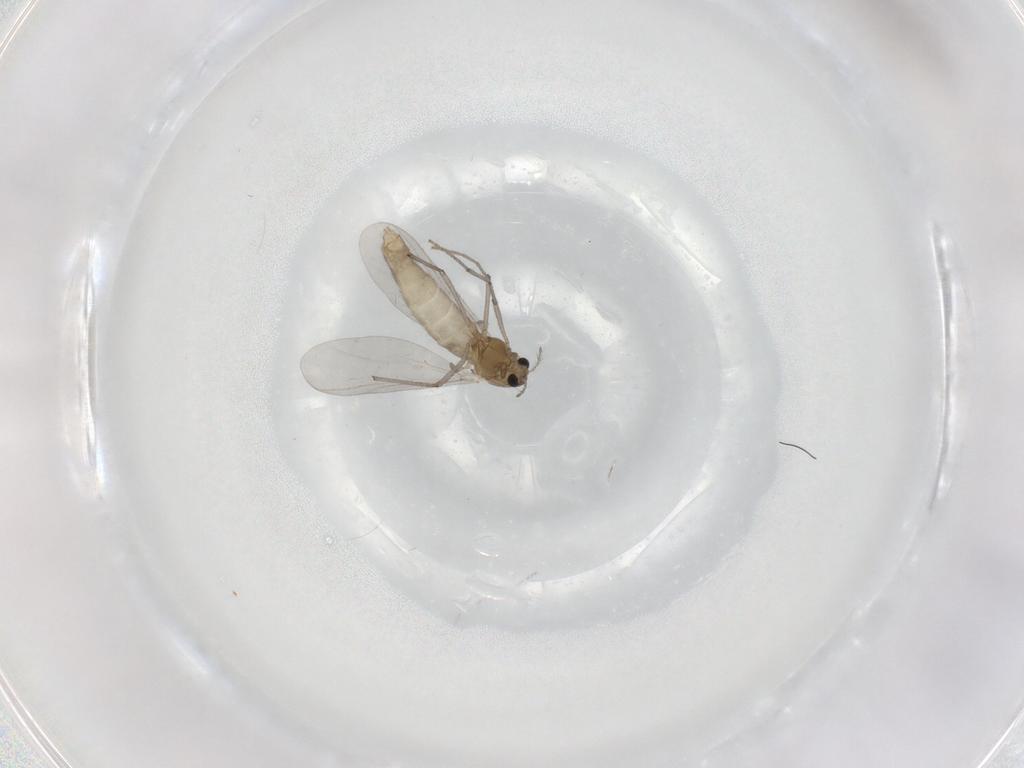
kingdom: Animalia
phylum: Arthropoda
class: Insecta
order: Diptera
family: Chironomidae
